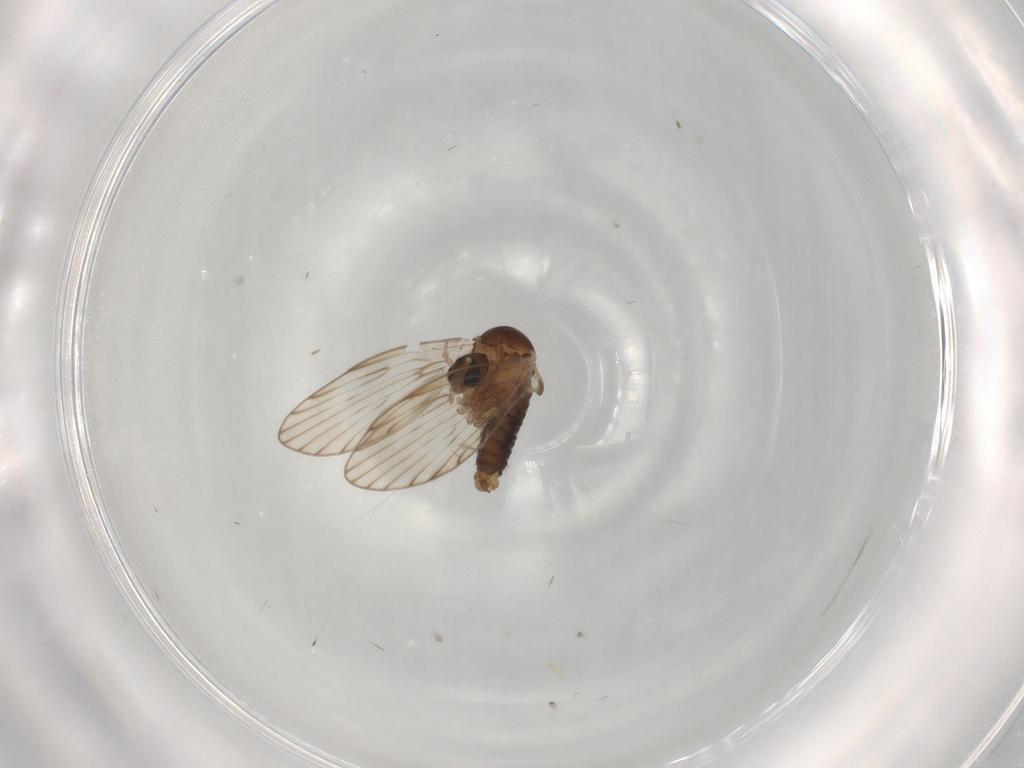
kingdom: Animalia
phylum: Arthropoda
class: Insecta
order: Diptera
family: Psychodidae
